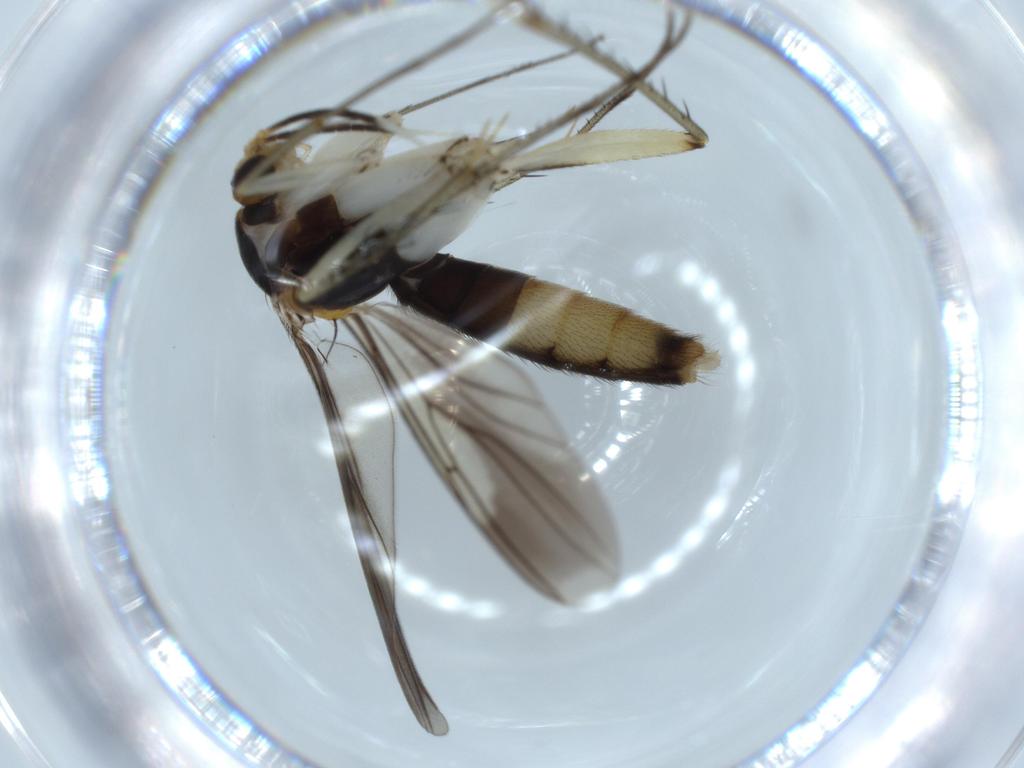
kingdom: Animalia
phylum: Arthropoda
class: Insecta
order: Diptera
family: Mycetophilidae
